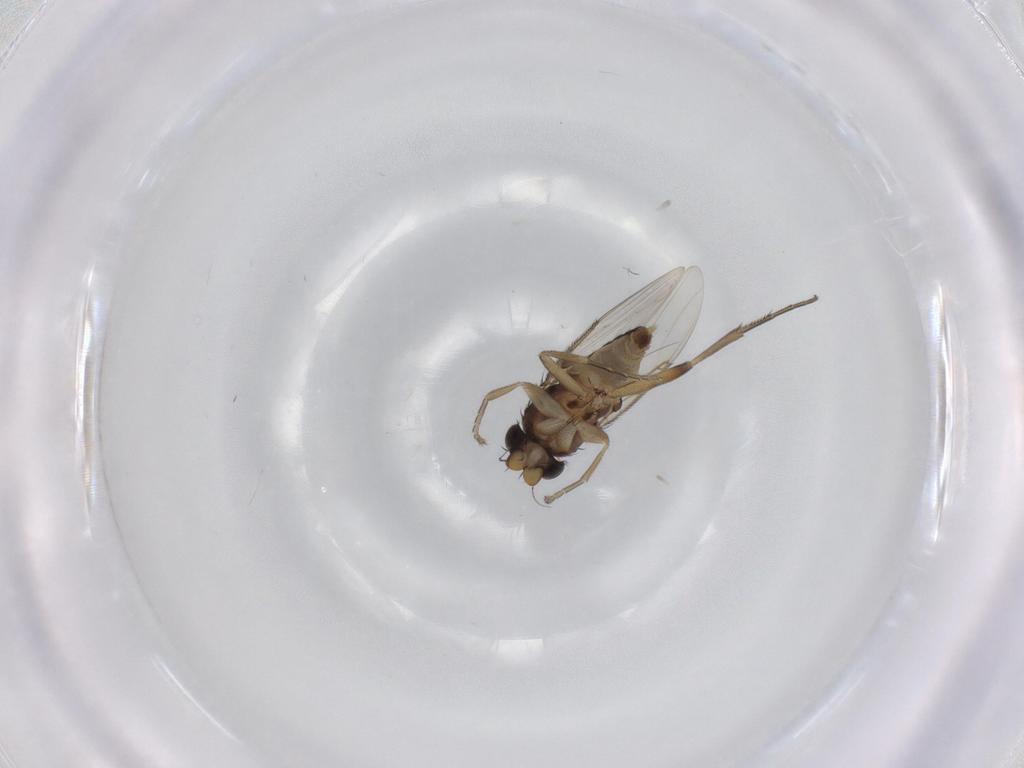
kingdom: Animalia
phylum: Arthropoda
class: Insecta
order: Diptera
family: Phoridae
